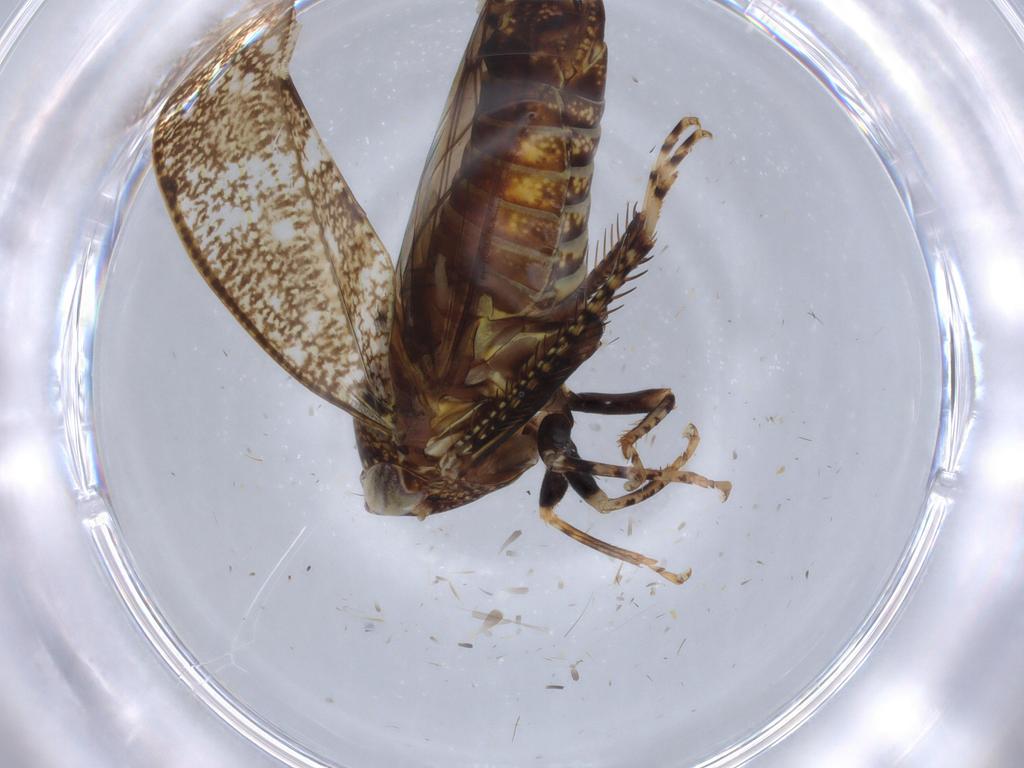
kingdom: Animalia
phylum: Arthropoda
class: Insecta
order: Hemiptera
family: Cicadellidae
